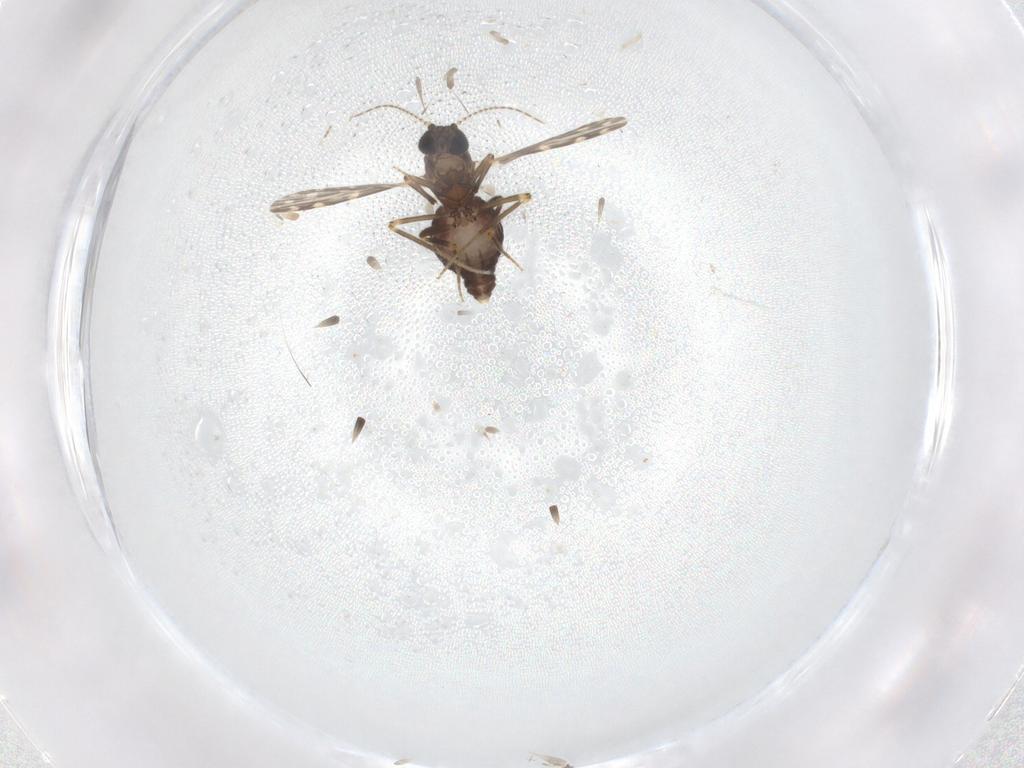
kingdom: Animalia
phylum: Arthropoda
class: Insecta
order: Diptera
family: Ceratopogonidae
